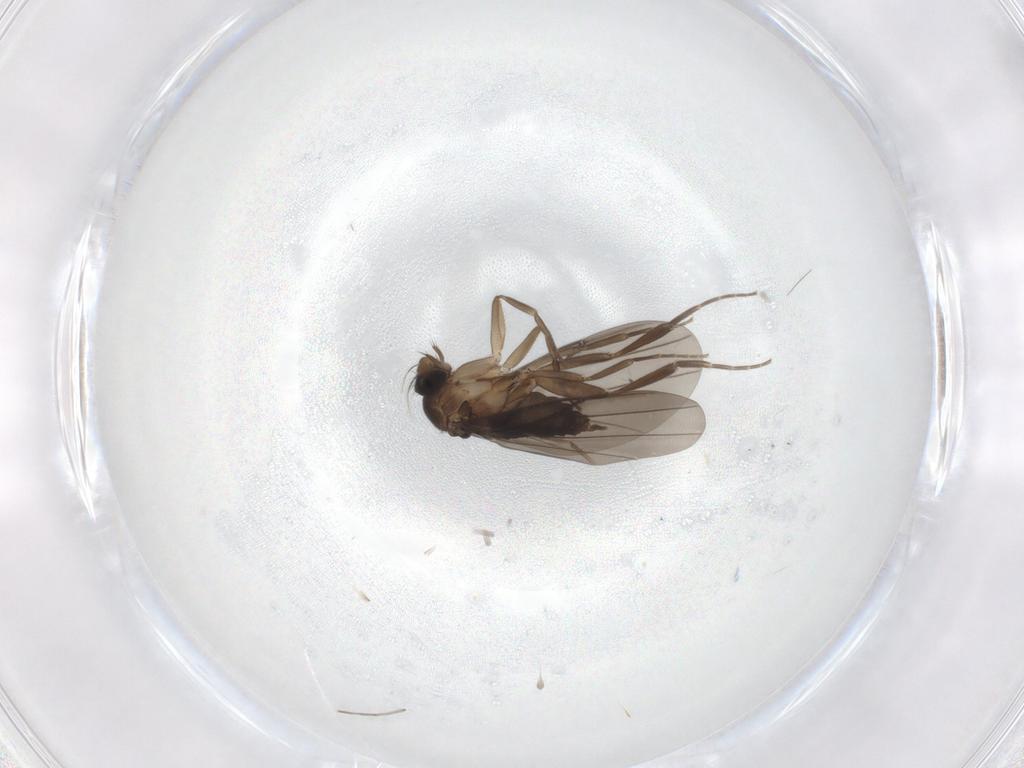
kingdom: Animalia
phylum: Arthropoda
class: Insecta
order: Diptera
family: Phoridae
